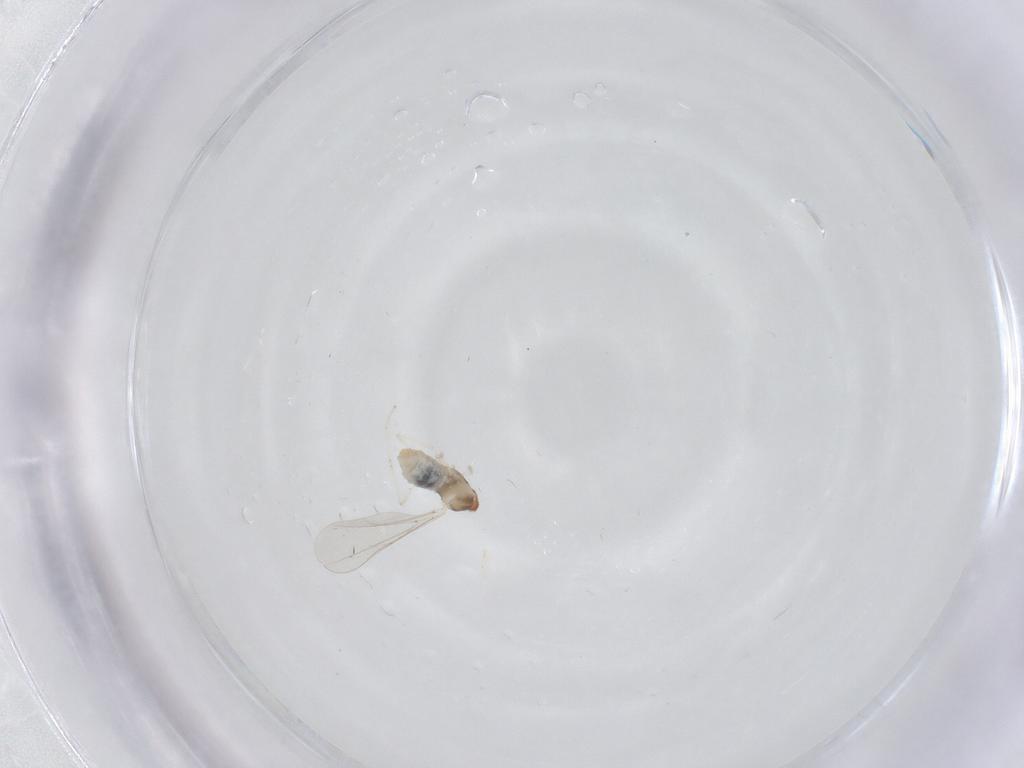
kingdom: Animalia
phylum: Arthropoda
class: Insecta
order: Diptera
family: Cecidomyiidae
